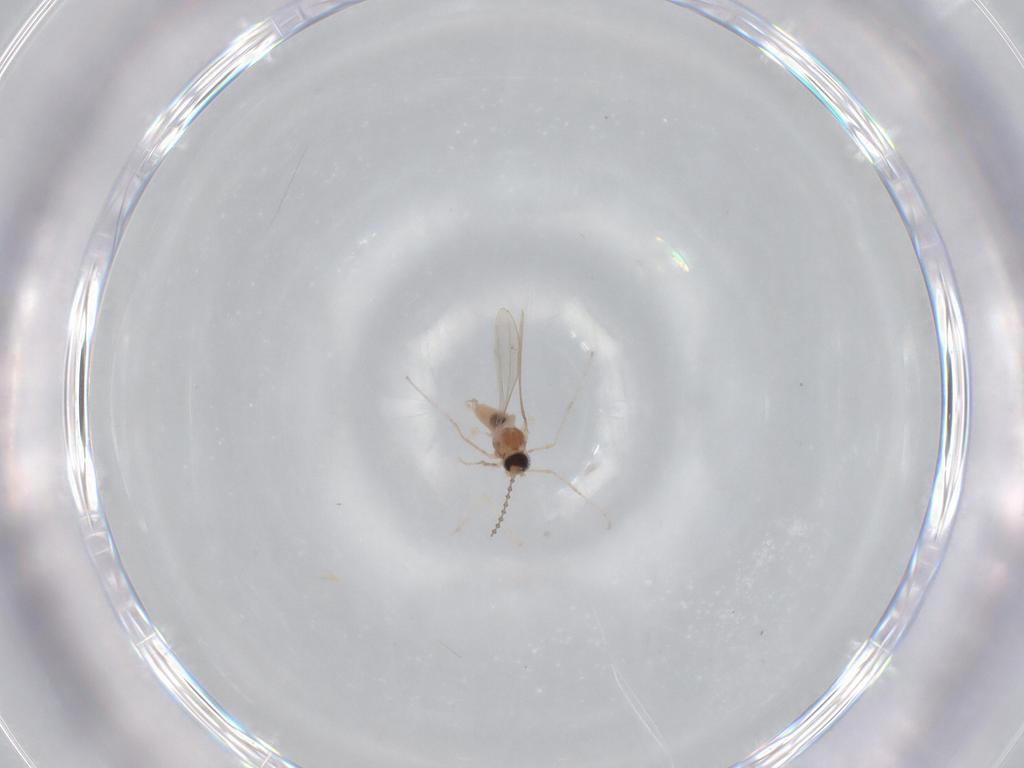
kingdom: Animalia
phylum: Arthropoda
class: Insecta
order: Diptera
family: Cecidomyiidae
